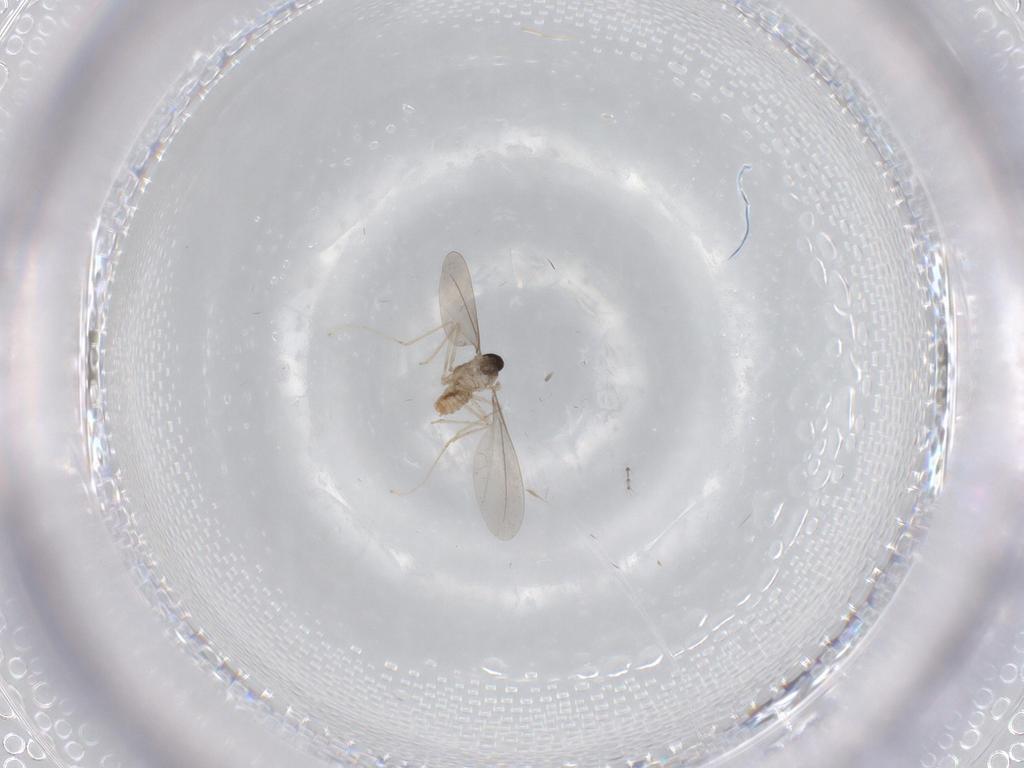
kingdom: Animalia
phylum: Arthropoda
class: Insecta
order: Diptera
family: Cecidomyiidae
